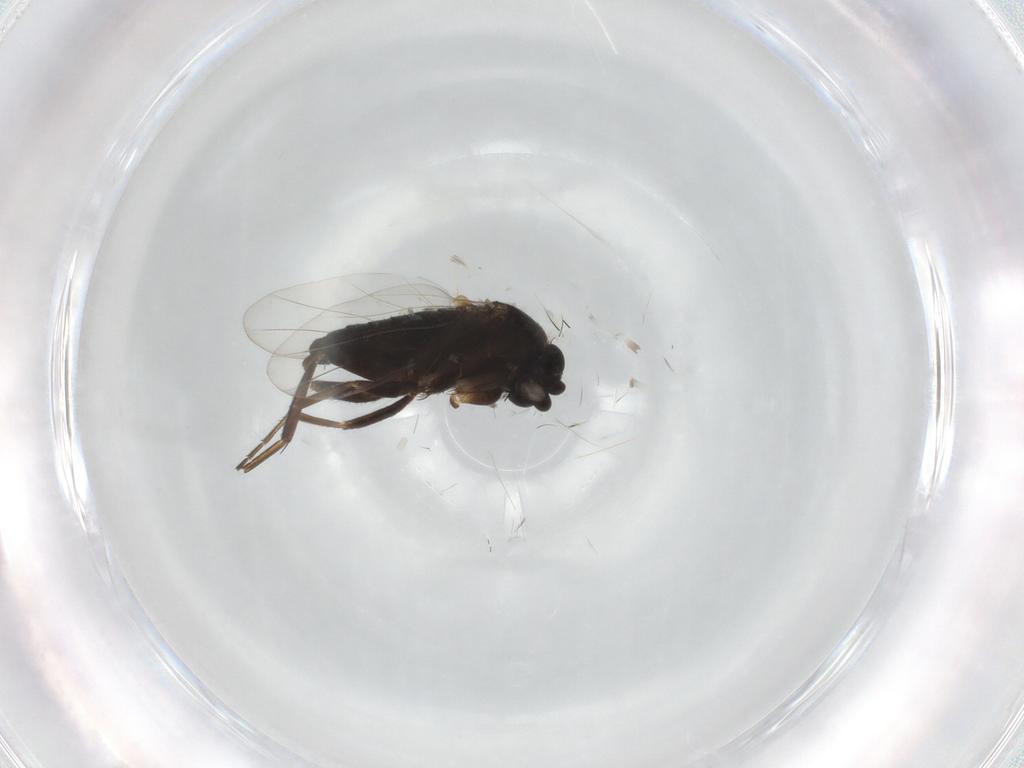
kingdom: Animalia
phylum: Arthropoda
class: Insecta
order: Diptera
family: Phoridae
